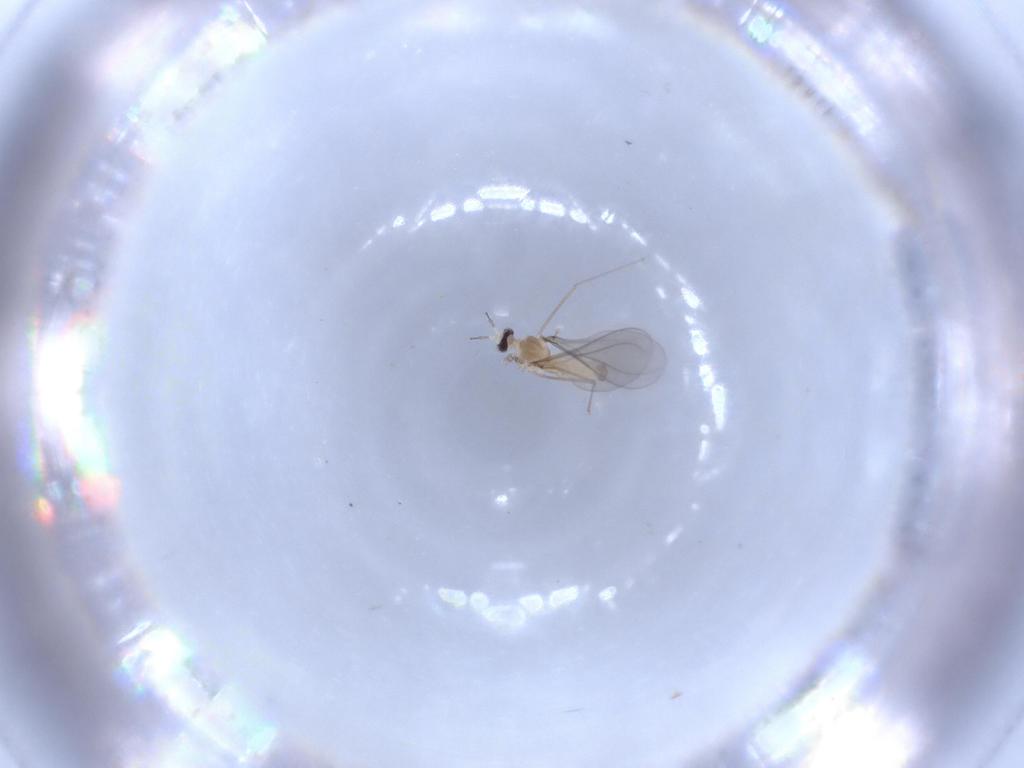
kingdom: Animalia
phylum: Arthropoda
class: Insecta
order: Diptera
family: Cecidomyiidae
